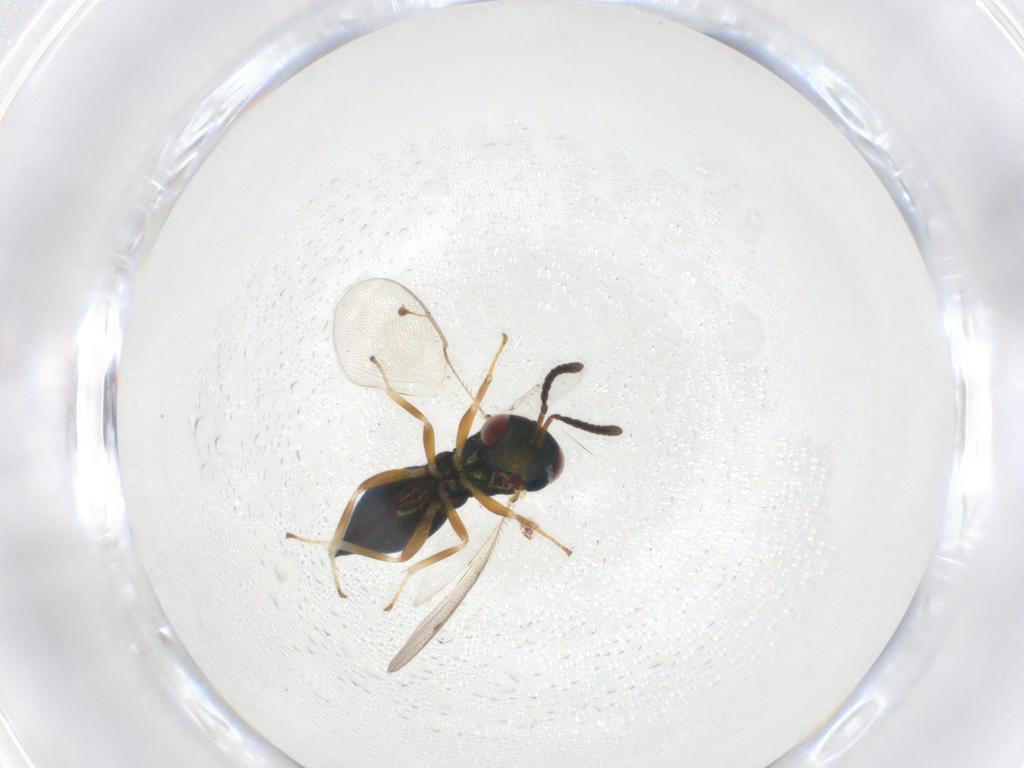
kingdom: Animalia
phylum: Arthropoda
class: Insecta
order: Hymenoptera
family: Pteromalidae
